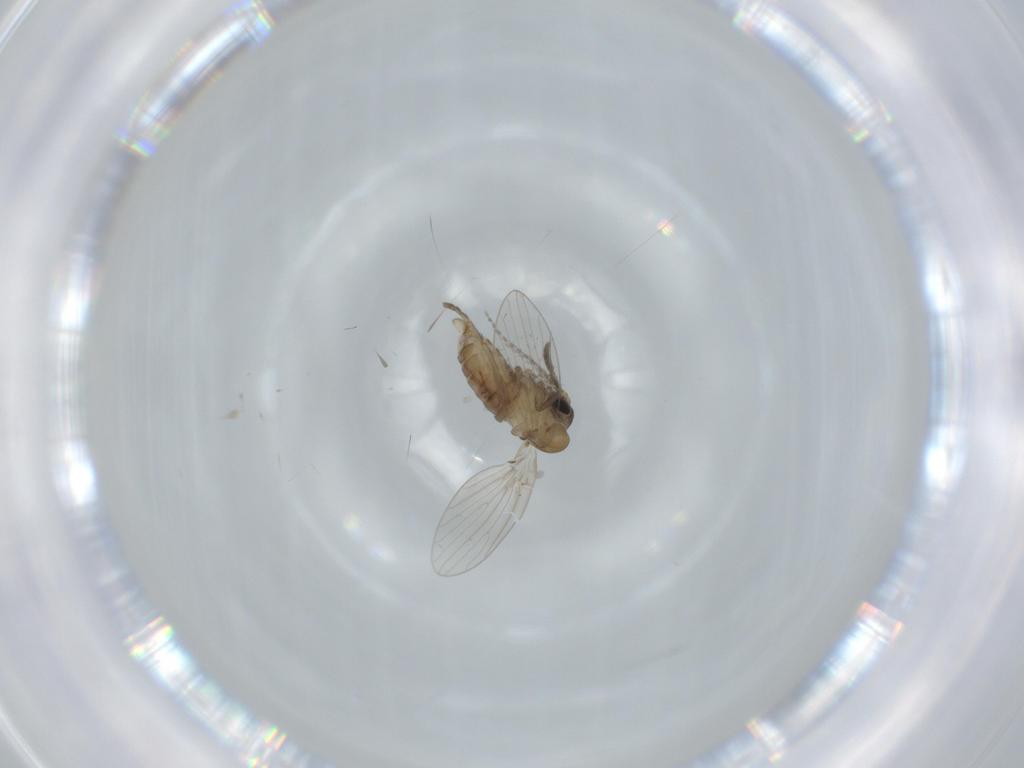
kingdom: Animalia
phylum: Arthropoda
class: Insecta
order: Diptera
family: Psychodidae
